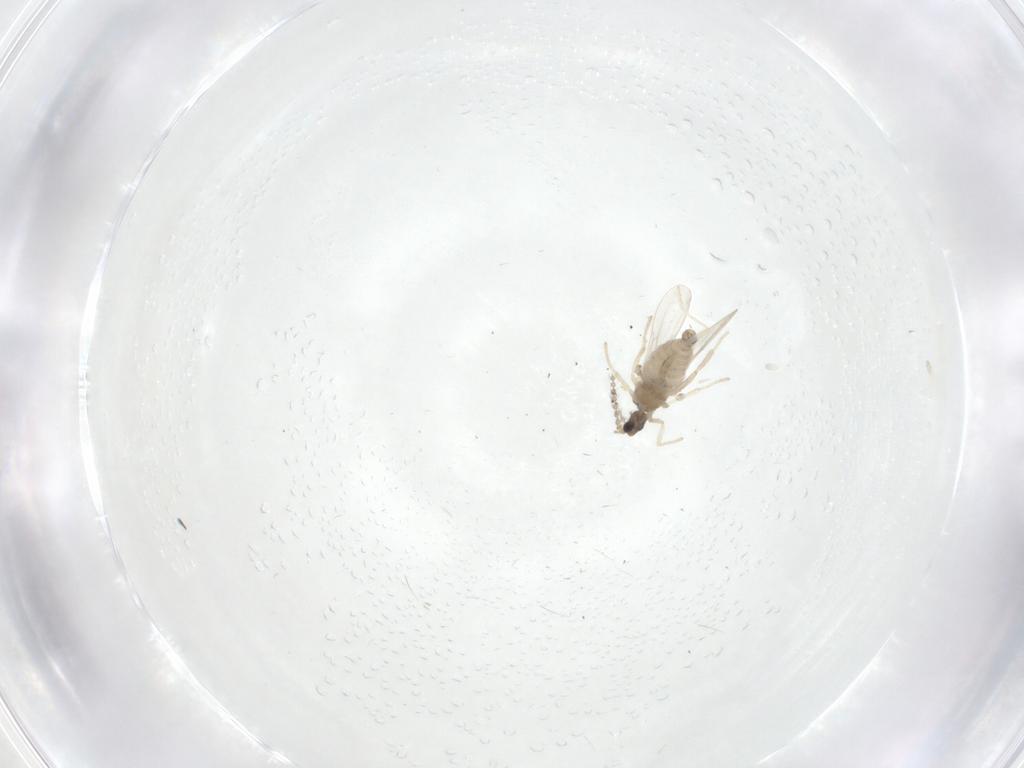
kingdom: Animalia
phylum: Arthropoda
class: Insecta
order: Diptera
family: Cecidomyiidae
